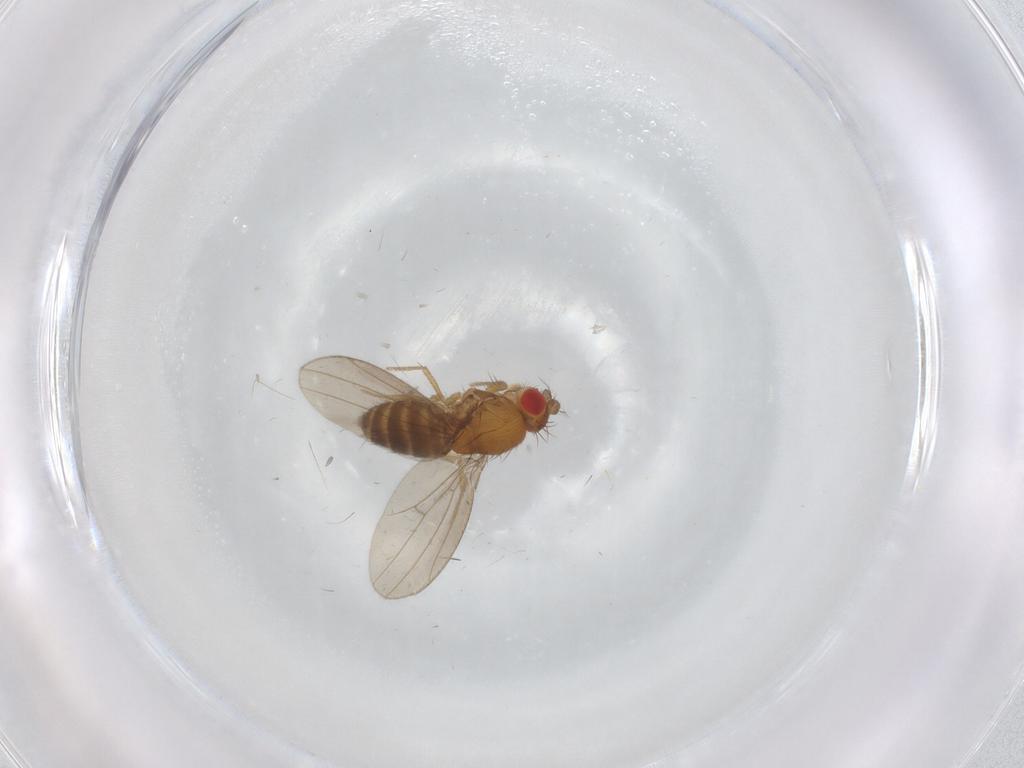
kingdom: Animalia
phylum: Arthropoda
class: Insecta
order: Diptera
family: Drosophilidae
